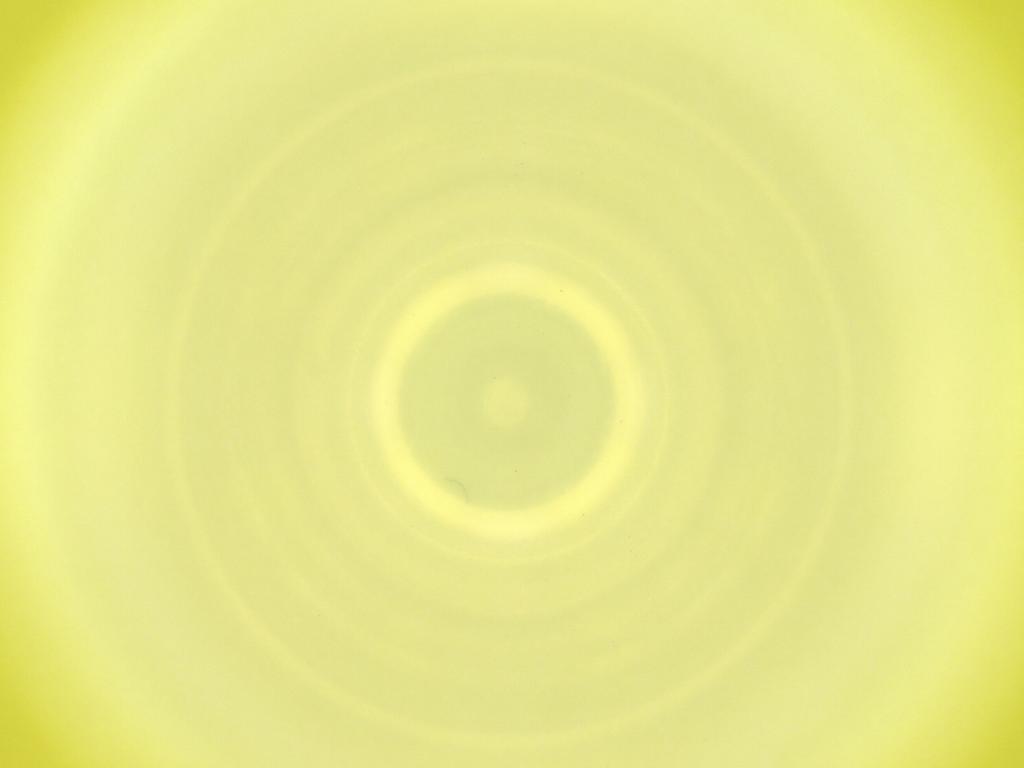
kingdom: Animalia
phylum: Arthropoda
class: Insecta
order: Diptera
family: Cecidomyiidae
